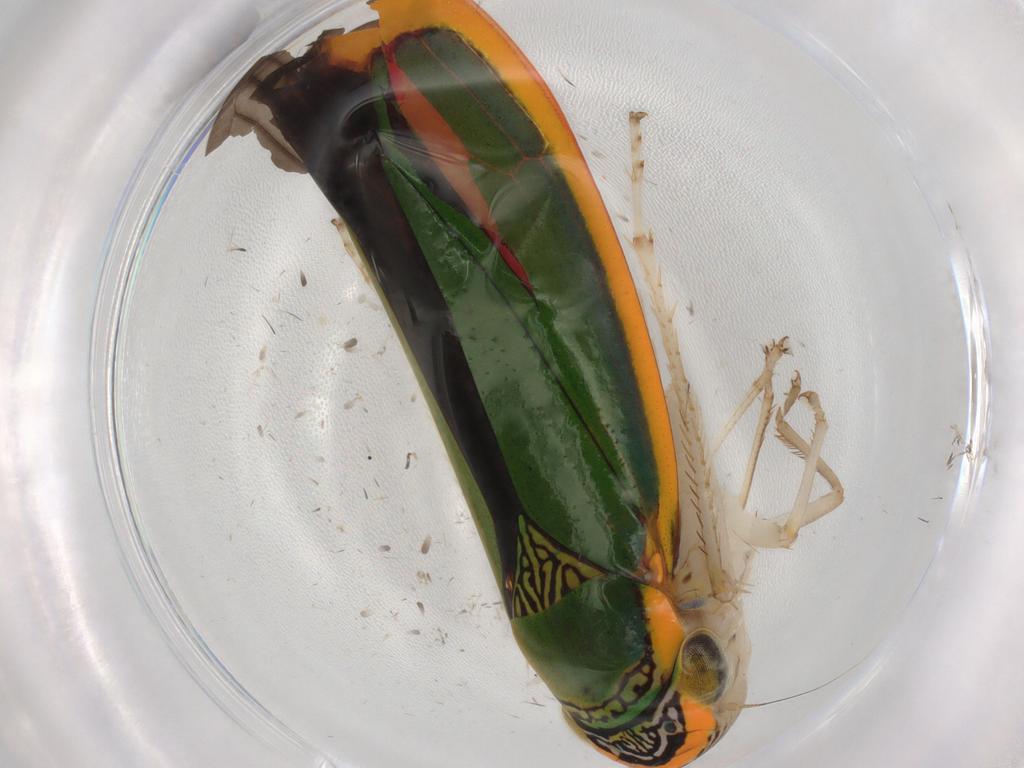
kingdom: Animalia
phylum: Arthropoda
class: Insecta
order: Hemiptera
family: Cicadellidae
